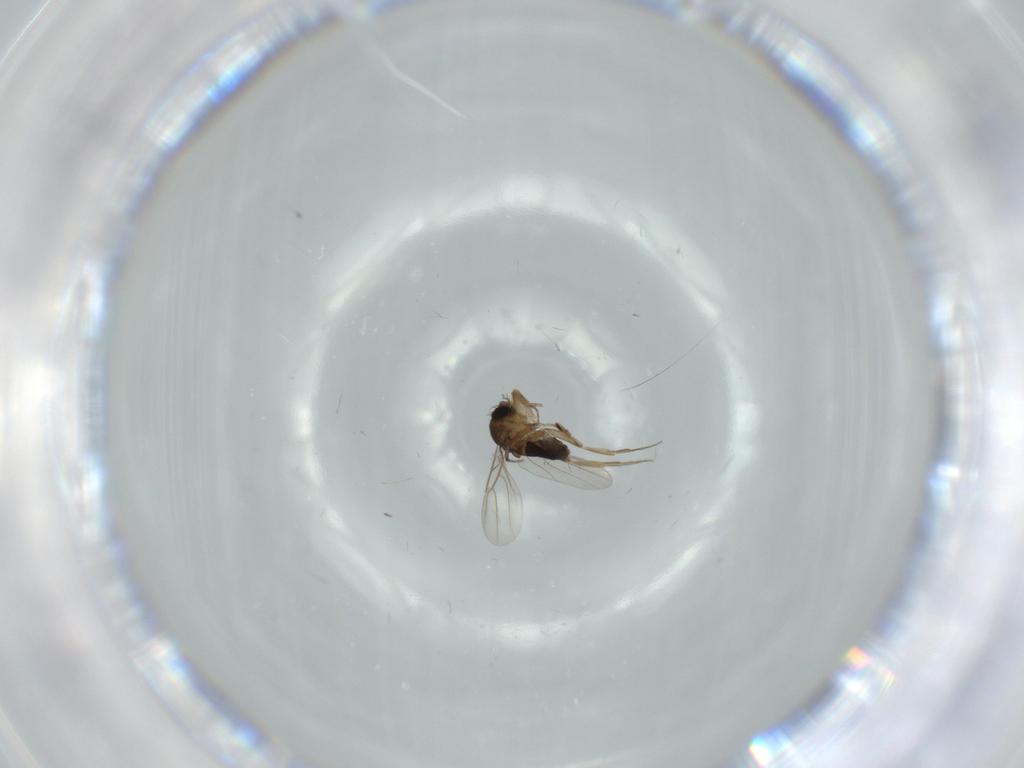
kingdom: Animalia
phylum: Arthropoda
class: Insecta
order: Diptera
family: Phoridae
